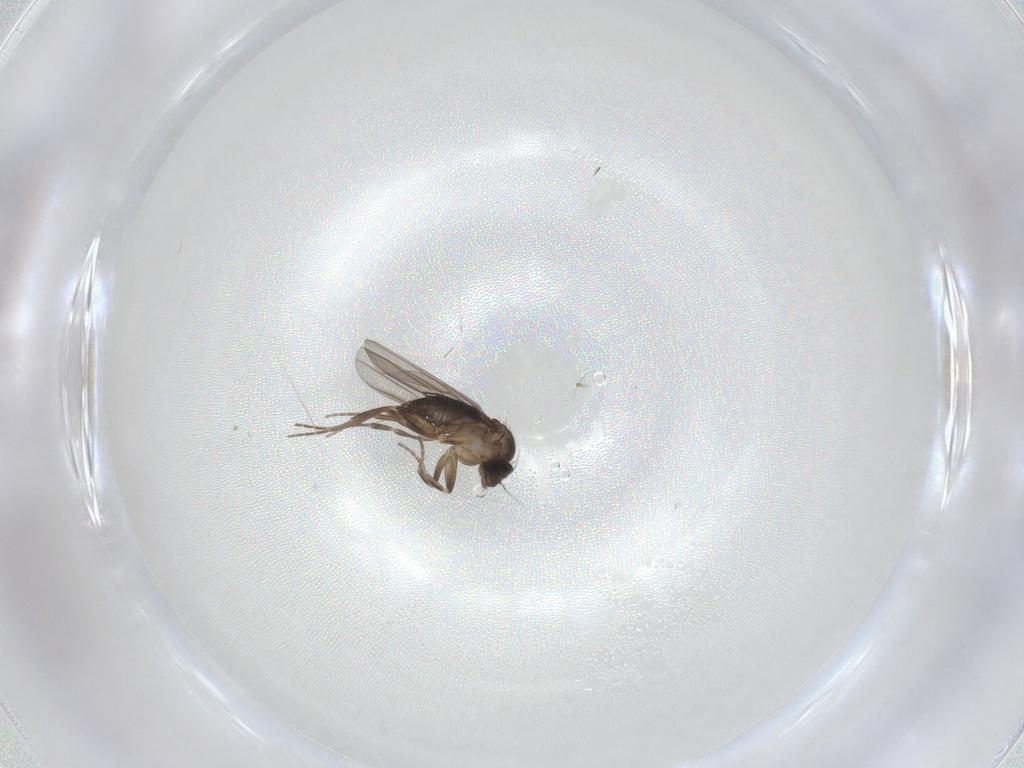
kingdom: Animalia
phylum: Arthropoda
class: Insecta
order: Diptera
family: Phoridae
